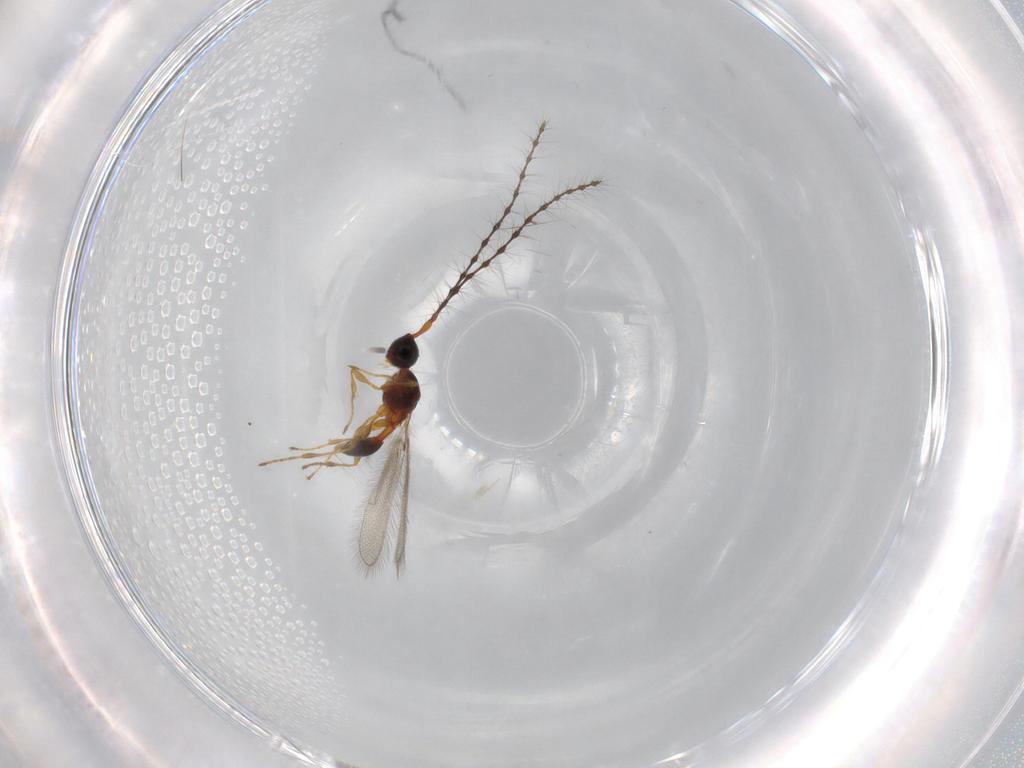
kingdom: Animalia
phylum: Arthropoda
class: Insecta
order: Hymenoptera
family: Diapriidae
